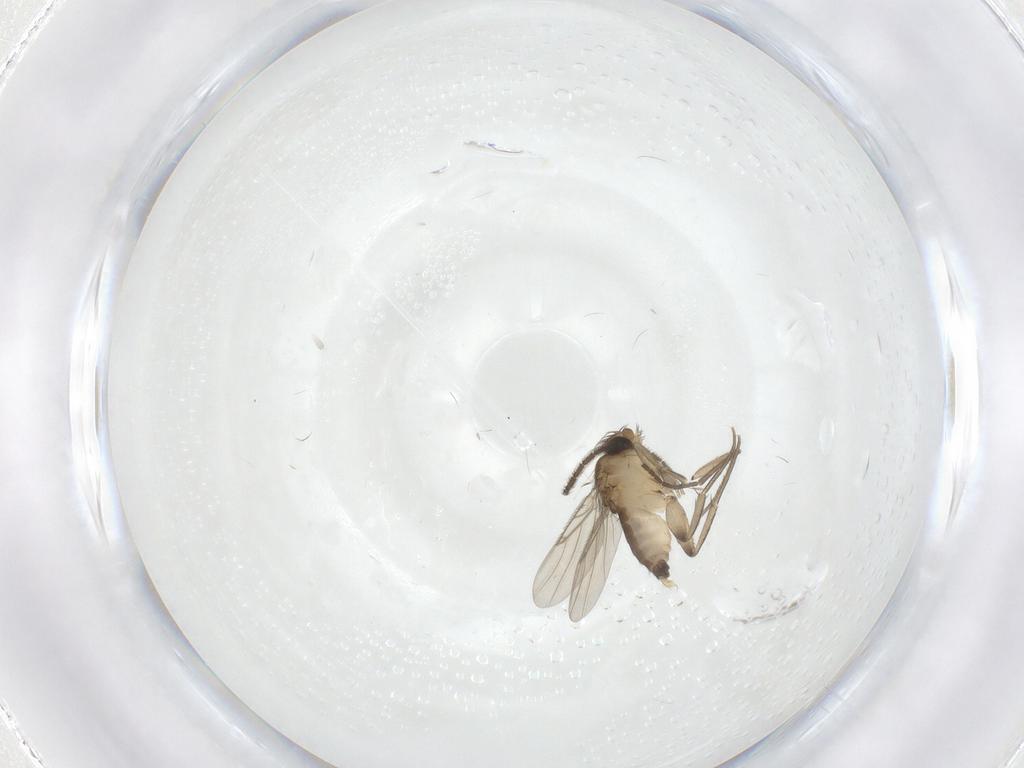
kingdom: Animalia
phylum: Arthropoda
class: Insecta
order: Diptera
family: Sciaridae
